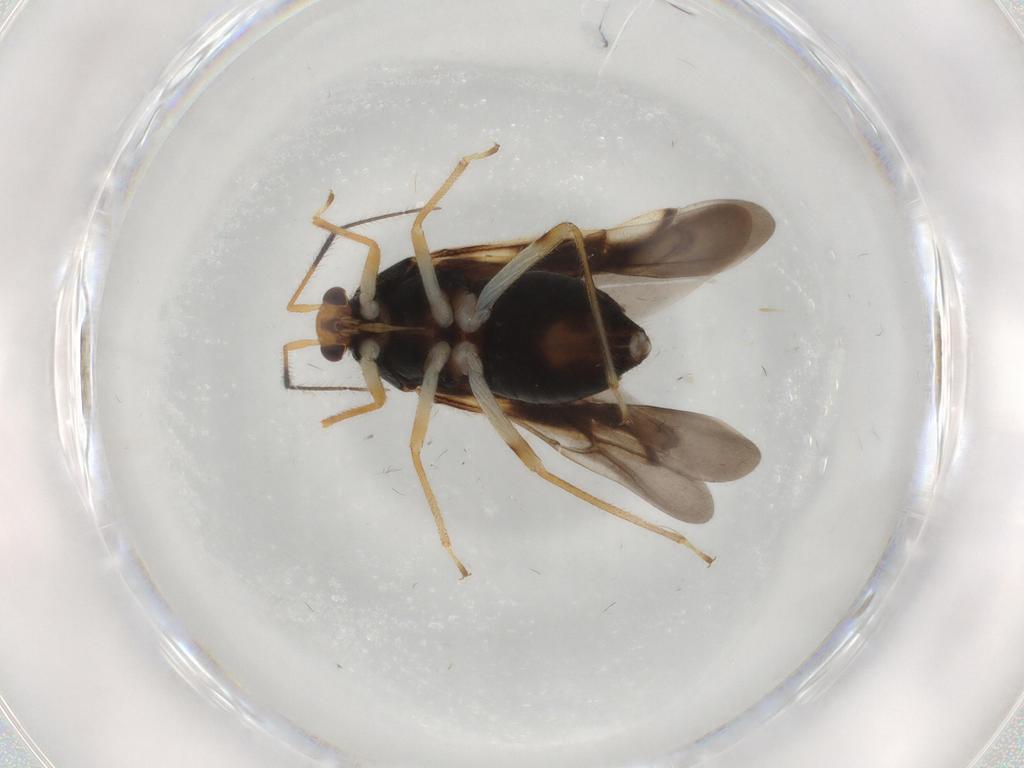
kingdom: Animalia
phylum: Arthropoda
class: Insecta
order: Hemiptera
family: Miridae
